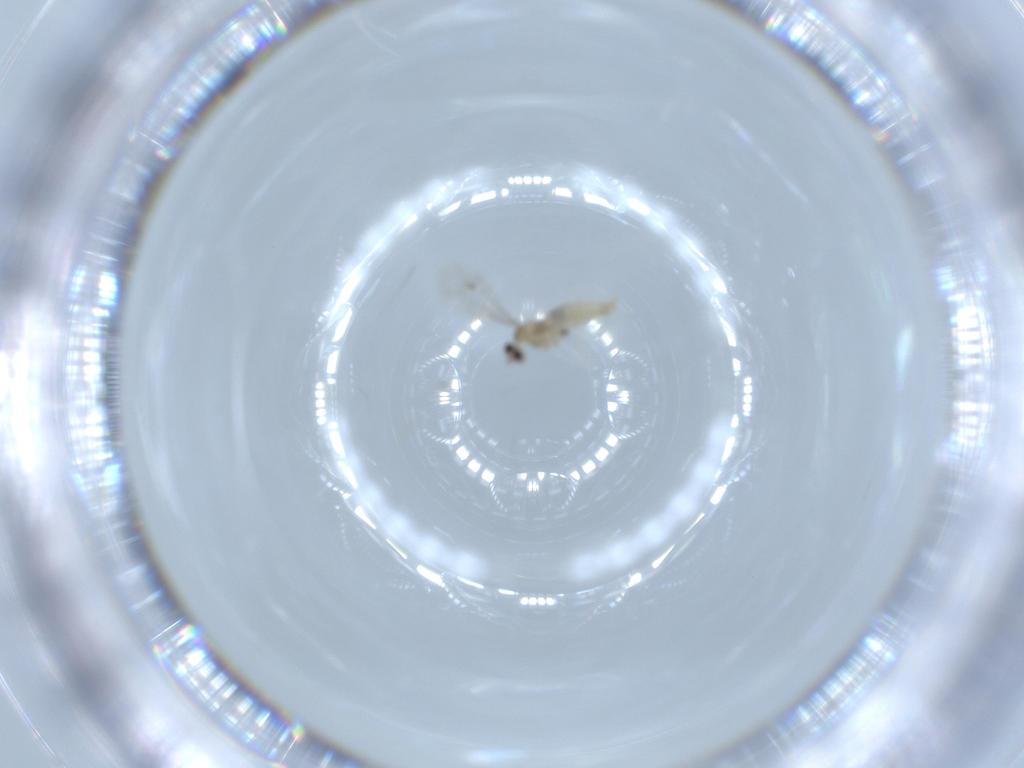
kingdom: Animalia
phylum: Arthropoda
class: Insecta
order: Diptera
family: Cecidomyiidae
